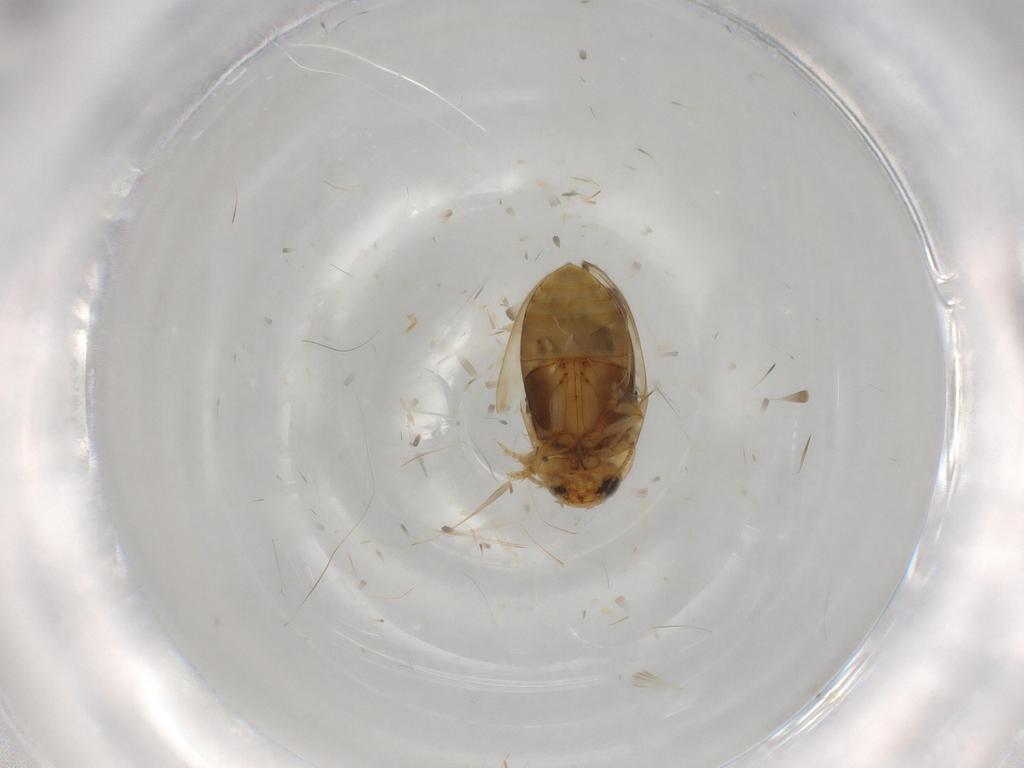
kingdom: Animalia
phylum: Arthropoda
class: Insecta
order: Coleoptera
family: Dytiscidae
